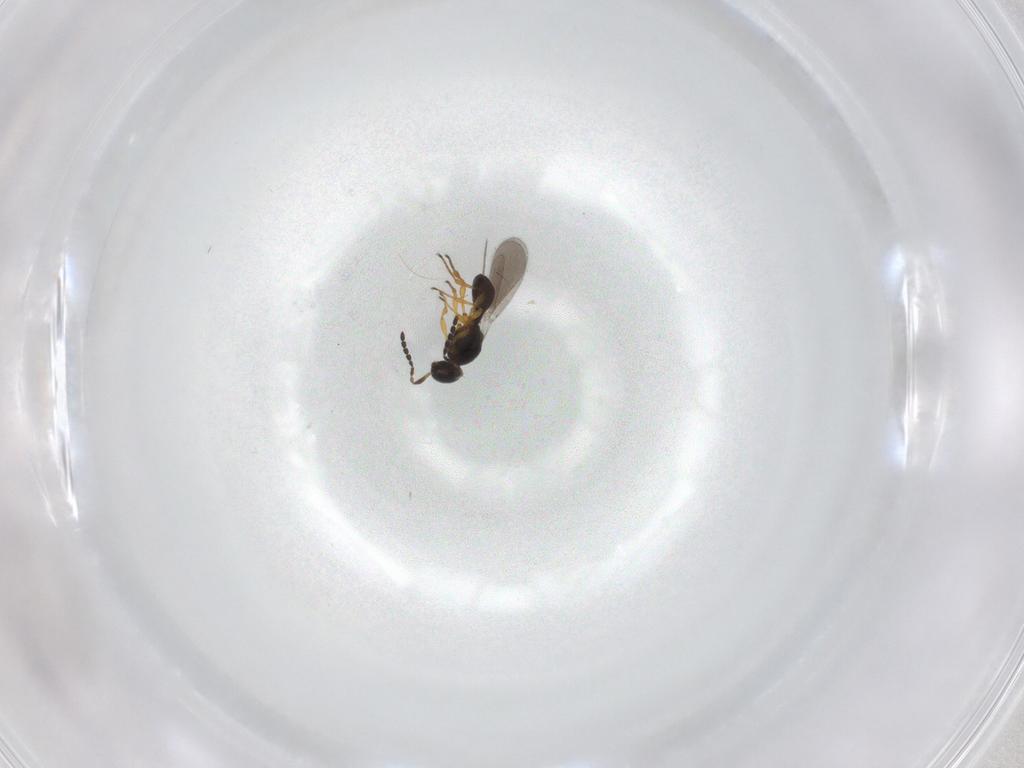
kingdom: Animalia
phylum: Arthropoda
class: Insecta
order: Hymenoptera
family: Platygastridae
